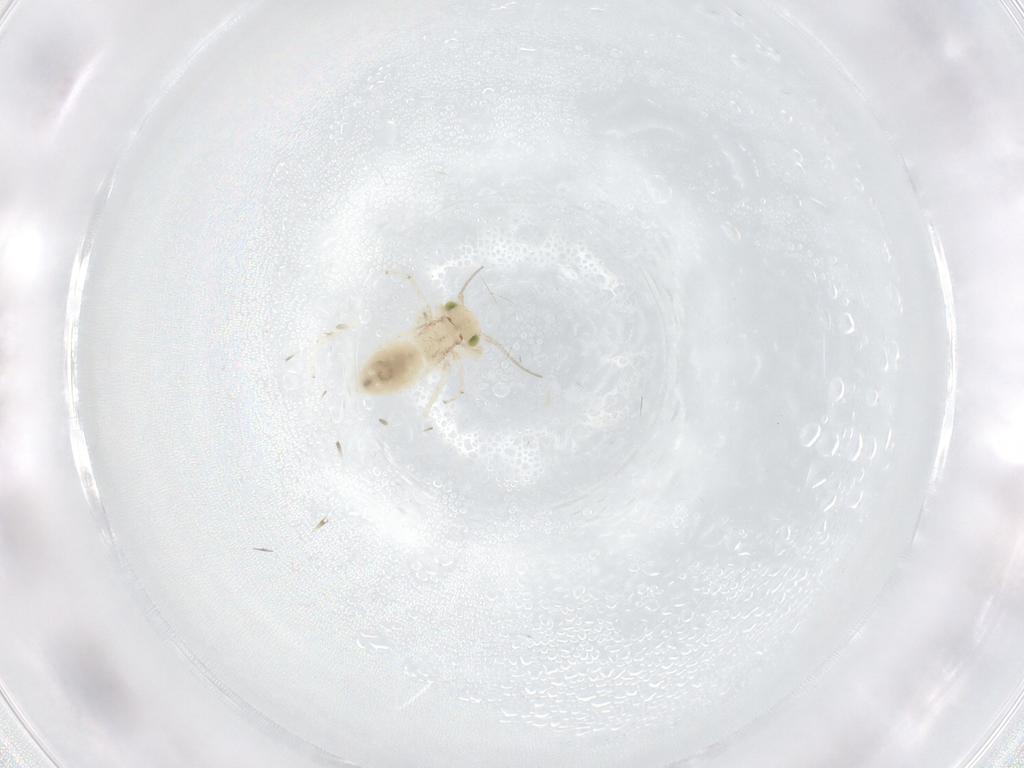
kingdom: Animalia
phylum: Arthropoda
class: Insecta
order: Psocodea
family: Lepidopsocidae
